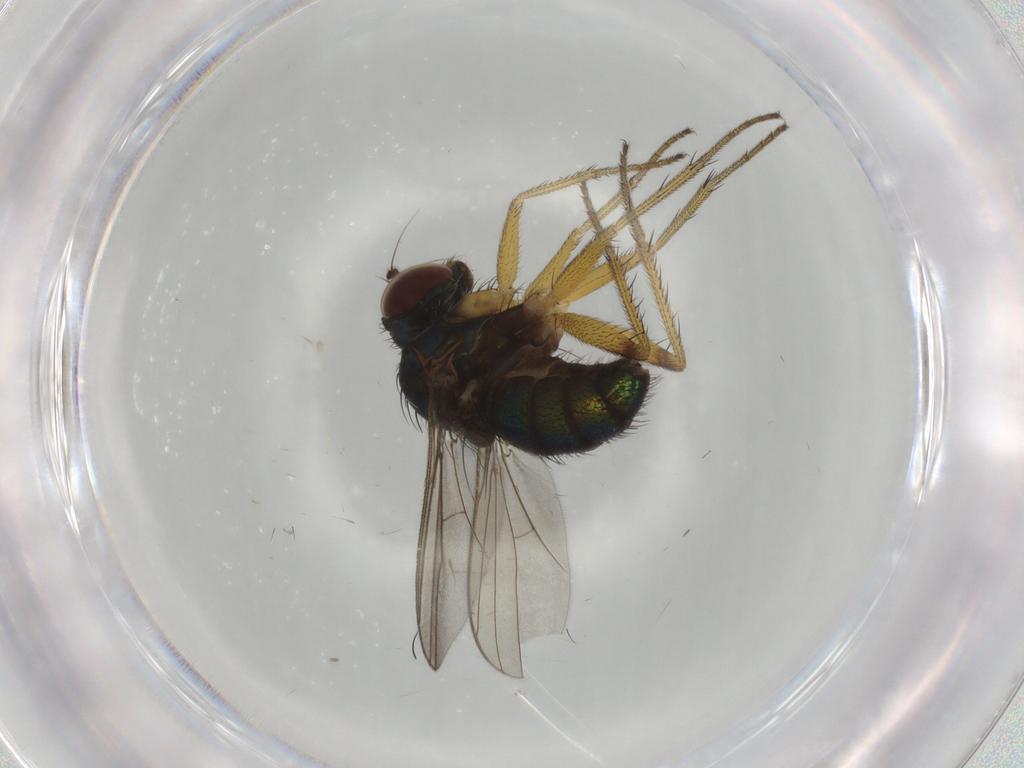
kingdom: Animalia
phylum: Arthropoda
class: Insecta
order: Diptera
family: Dolichopodidae
